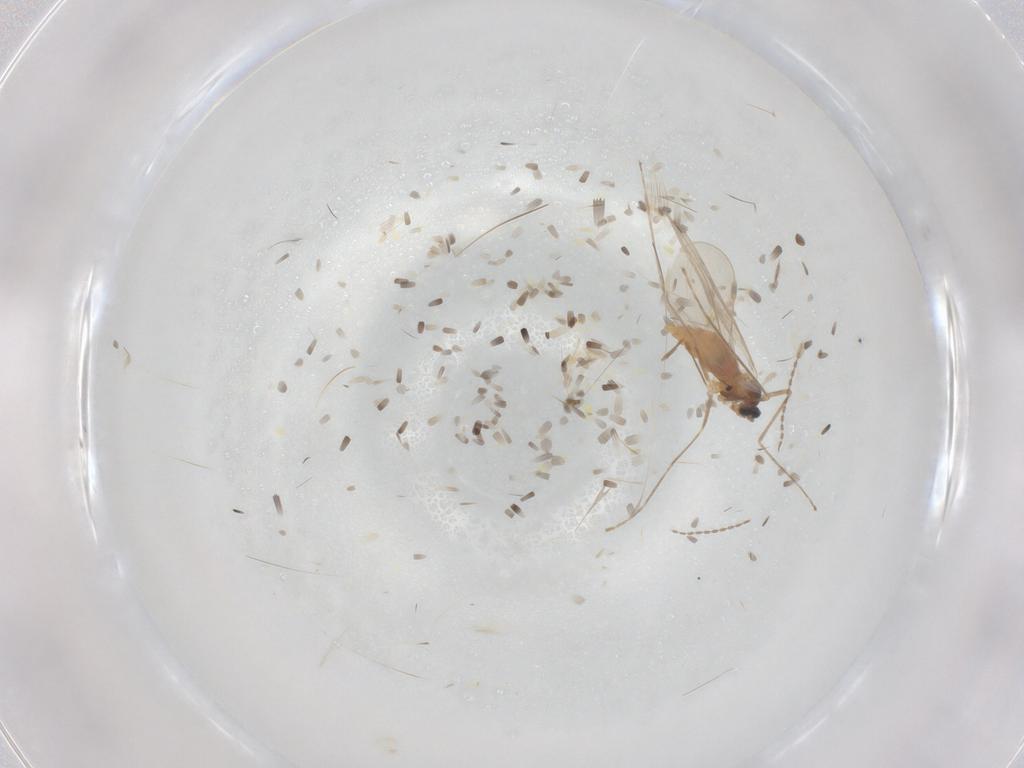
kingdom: Animalia
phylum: Arthropoda
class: Insecta
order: Diptera
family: Cecidomyiidae
